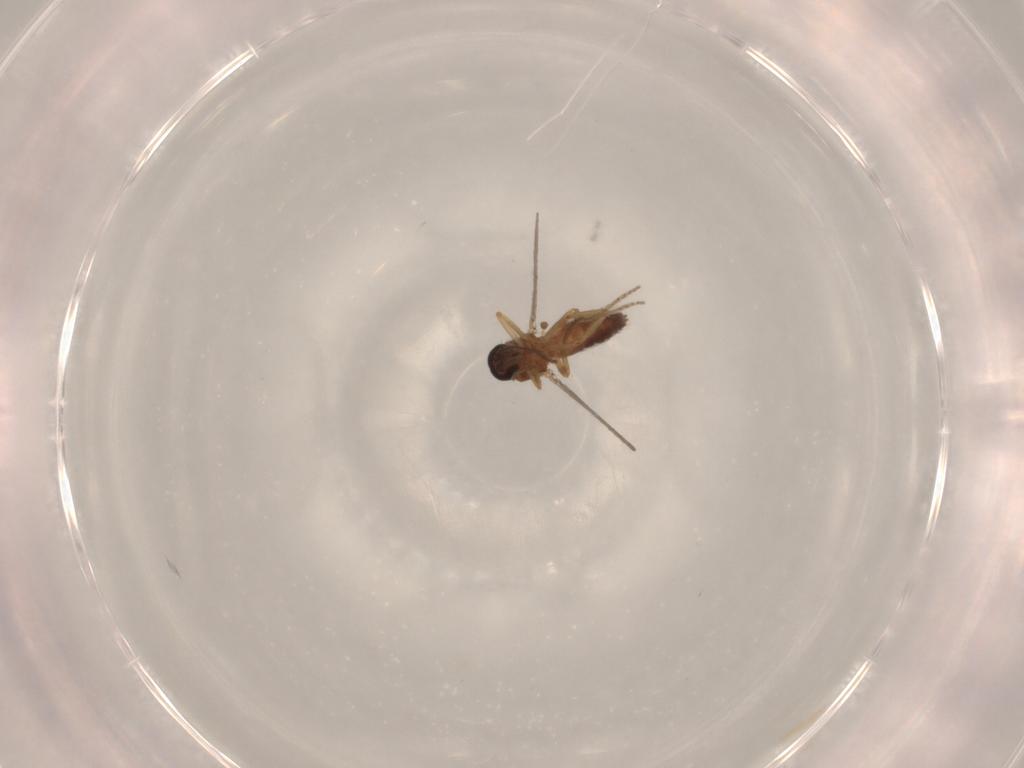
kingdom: Animalia
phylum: Arthropoda
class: Insecta
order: Diptera
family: Ceratopogonidae
